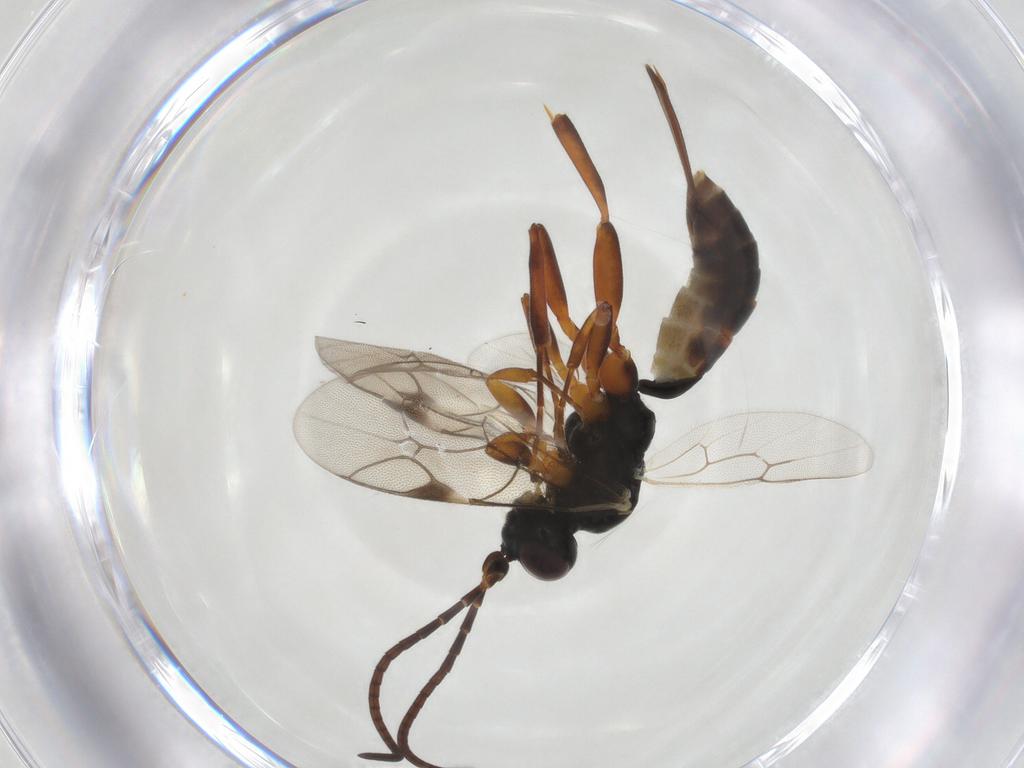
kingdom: Animalia
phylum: Arthropoda
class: Insecta
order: Hymenoptera
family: Ichneumonidae
